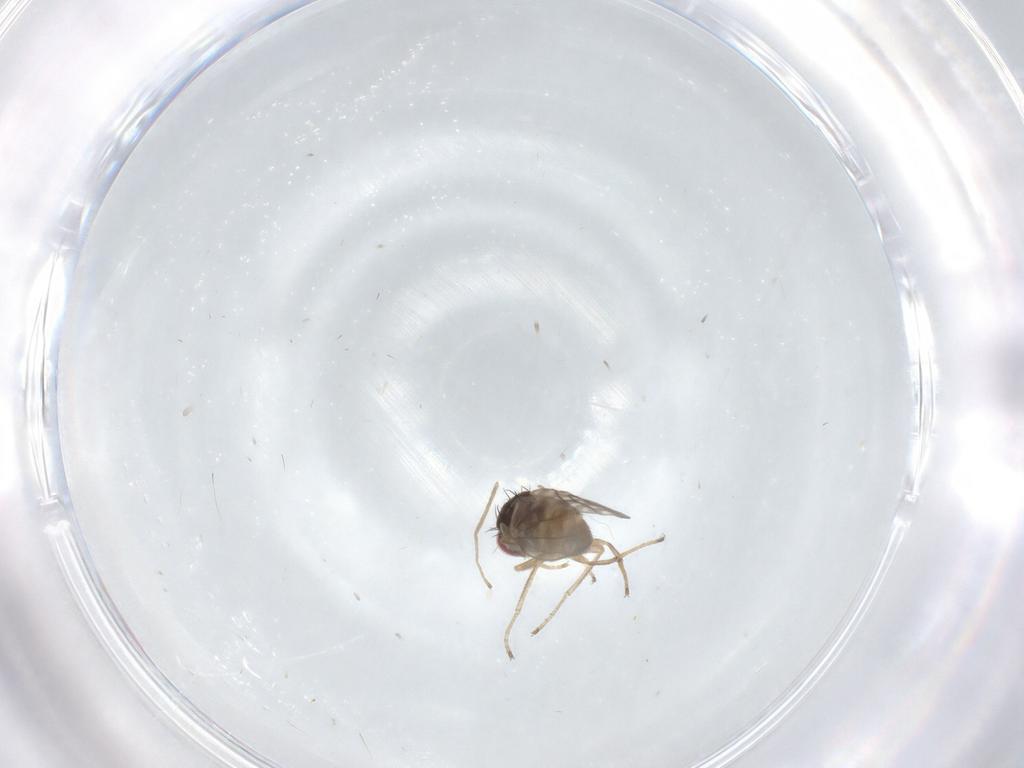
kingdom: Animalia
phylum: Arthropoda
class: Insecta
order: Diptera
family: Ephydridae
